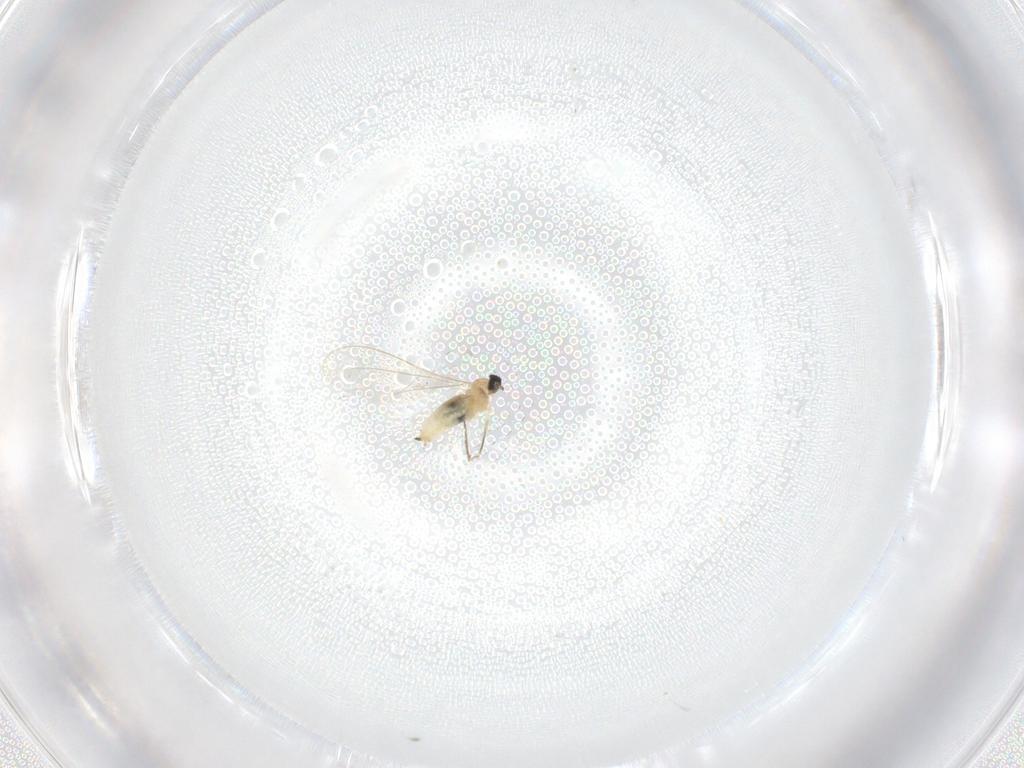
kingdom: Animalia
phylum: Arthropoda
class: Insecta
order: Diptera
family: Cecidomyiidae
